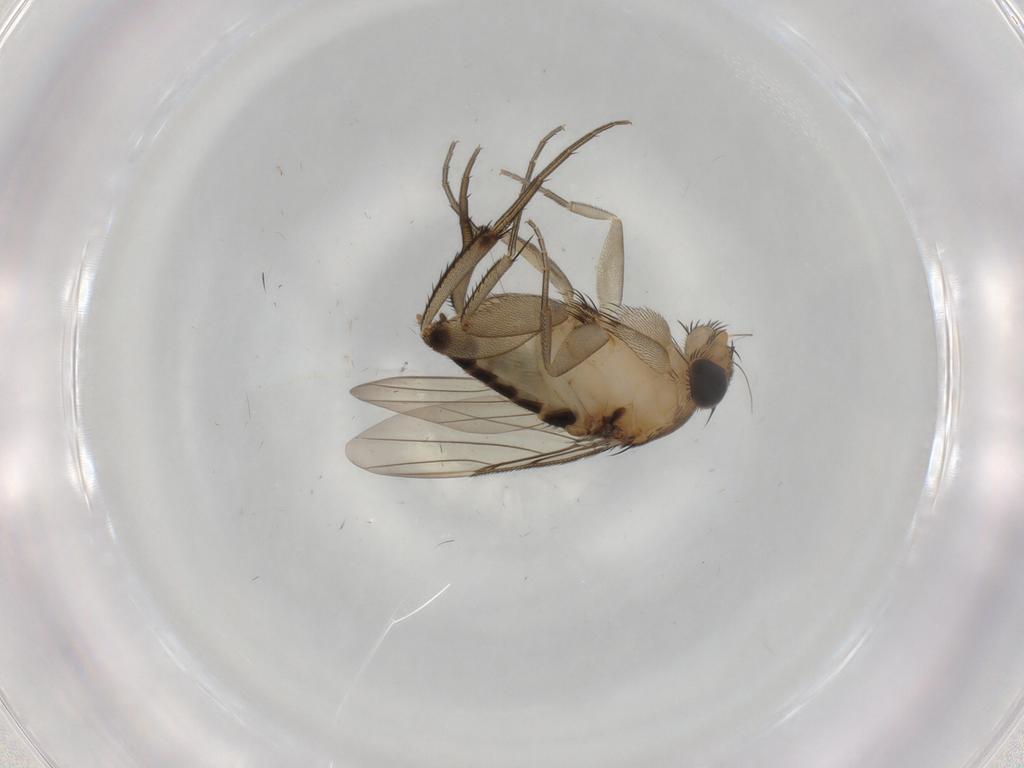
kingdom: Animalia
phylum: Arthropoda
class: Insecta
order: Diptera
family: Phoridae
